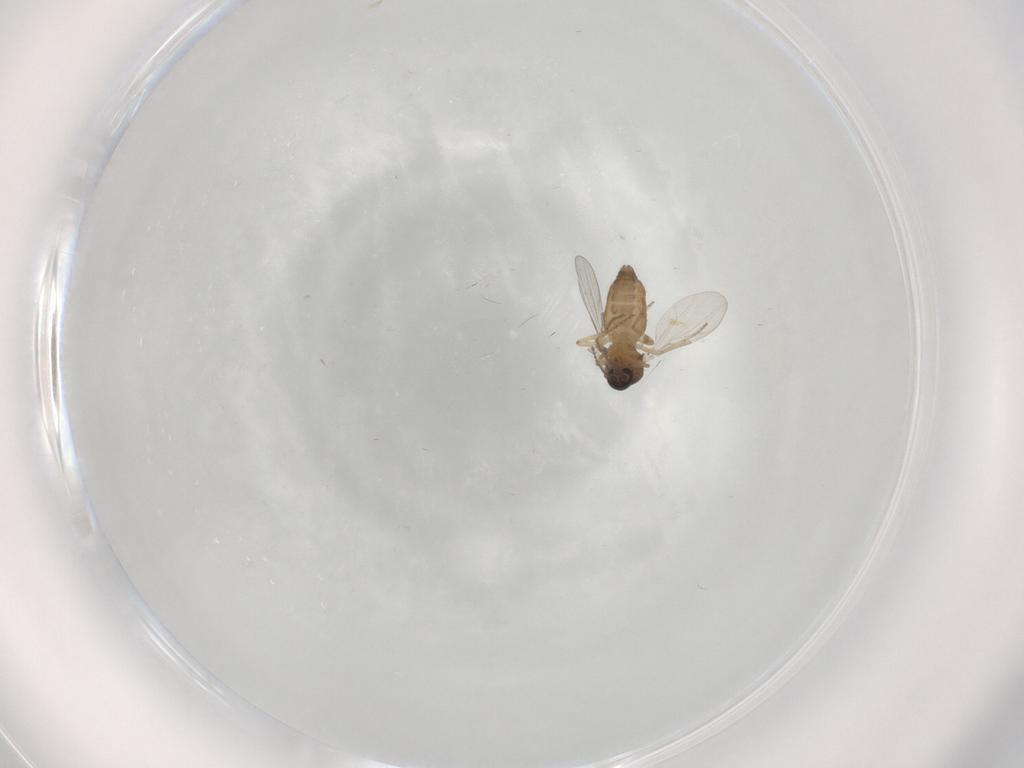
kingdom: Animalia
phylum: Arthropoda
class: Insecta
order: Diptera
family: Ceratopogonidae
